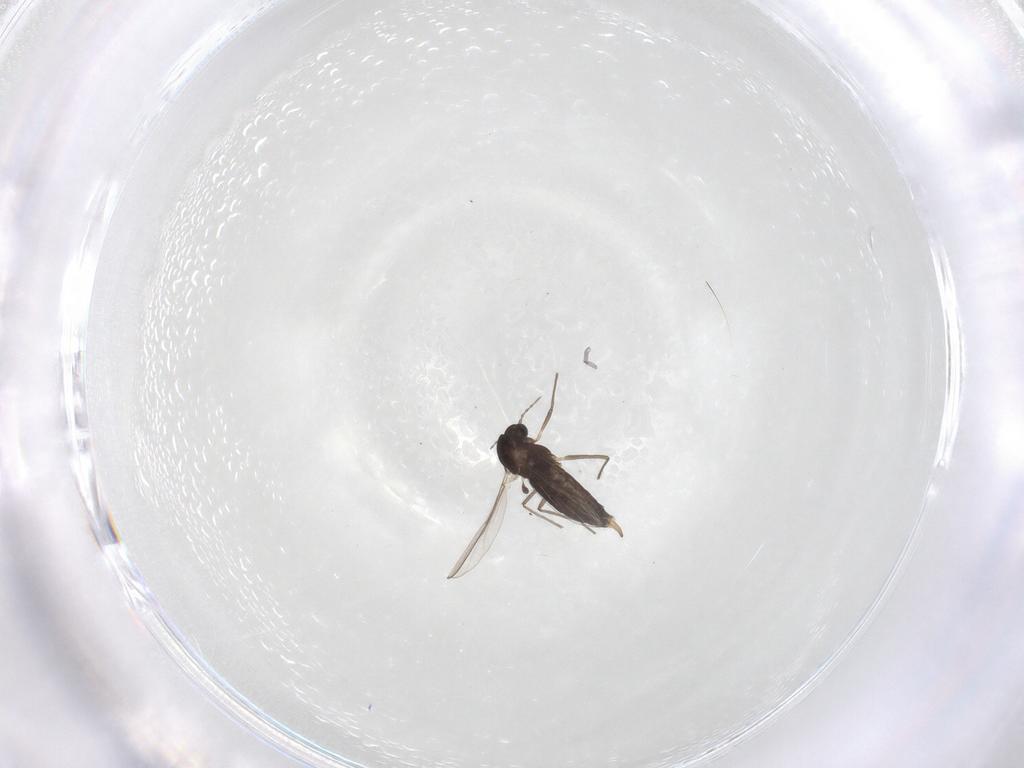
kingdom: Animalia
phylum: Arthropoda
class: Insecta
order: Diptera
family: Chironomidae
